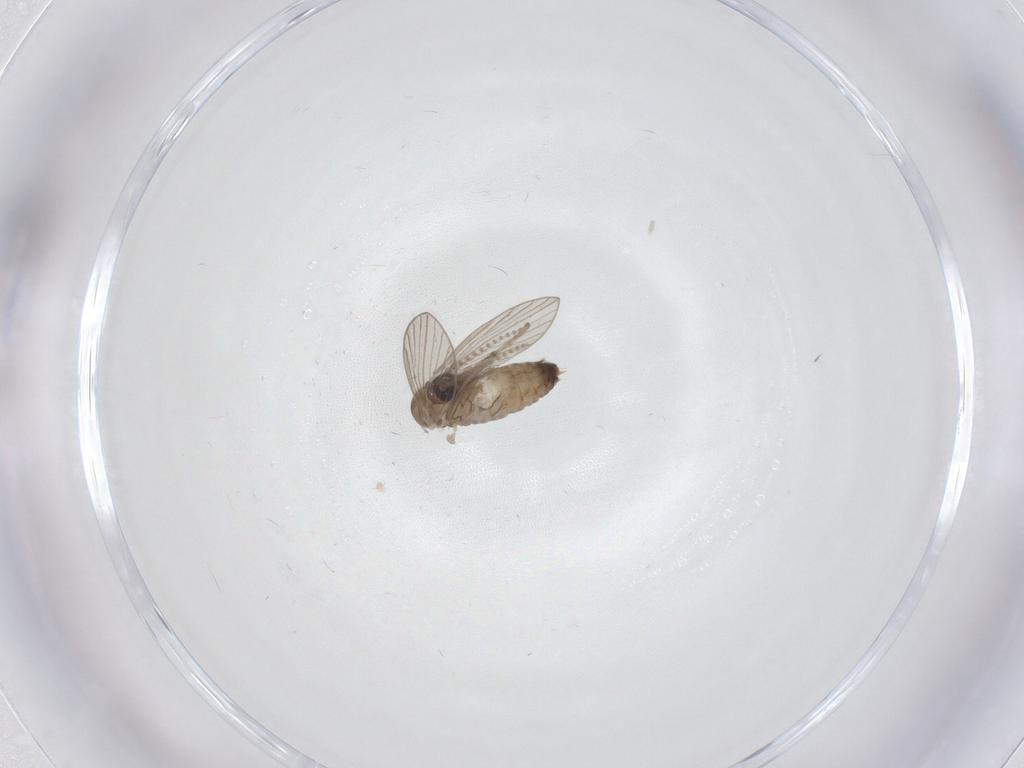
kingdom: Animalia
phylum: Arthropoda
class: Insecta
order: Diptera
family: Psychodidae
